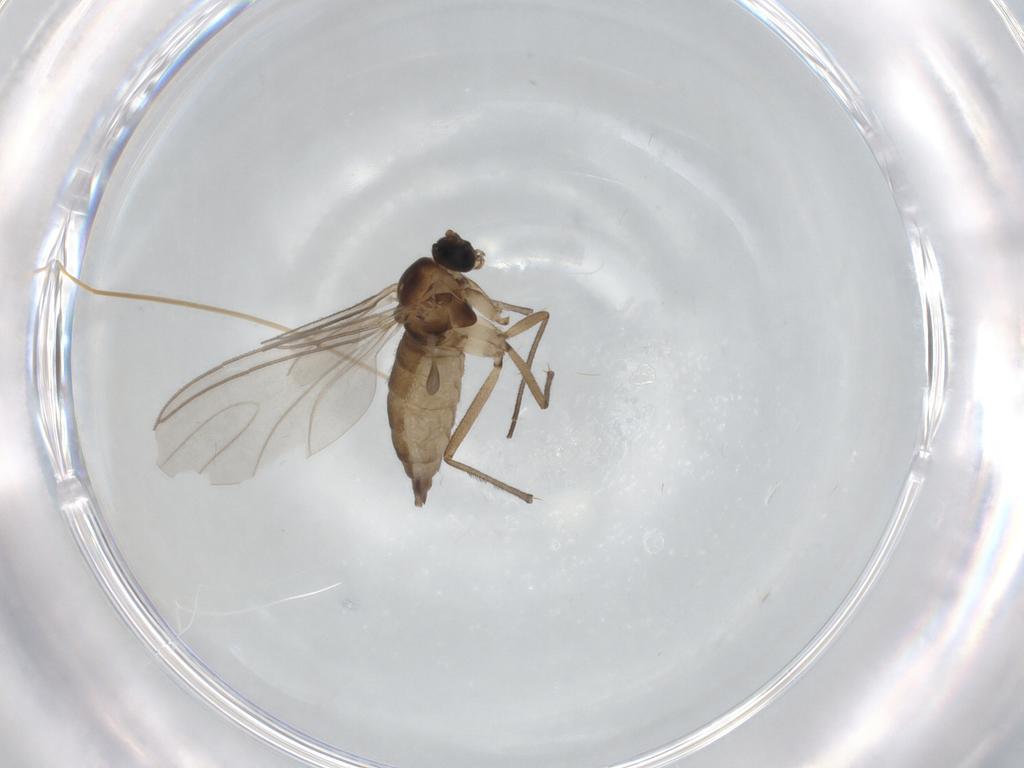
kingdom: Animalia
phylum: Arthropoda
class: Insecta
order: Diptera
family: Sciaridae
